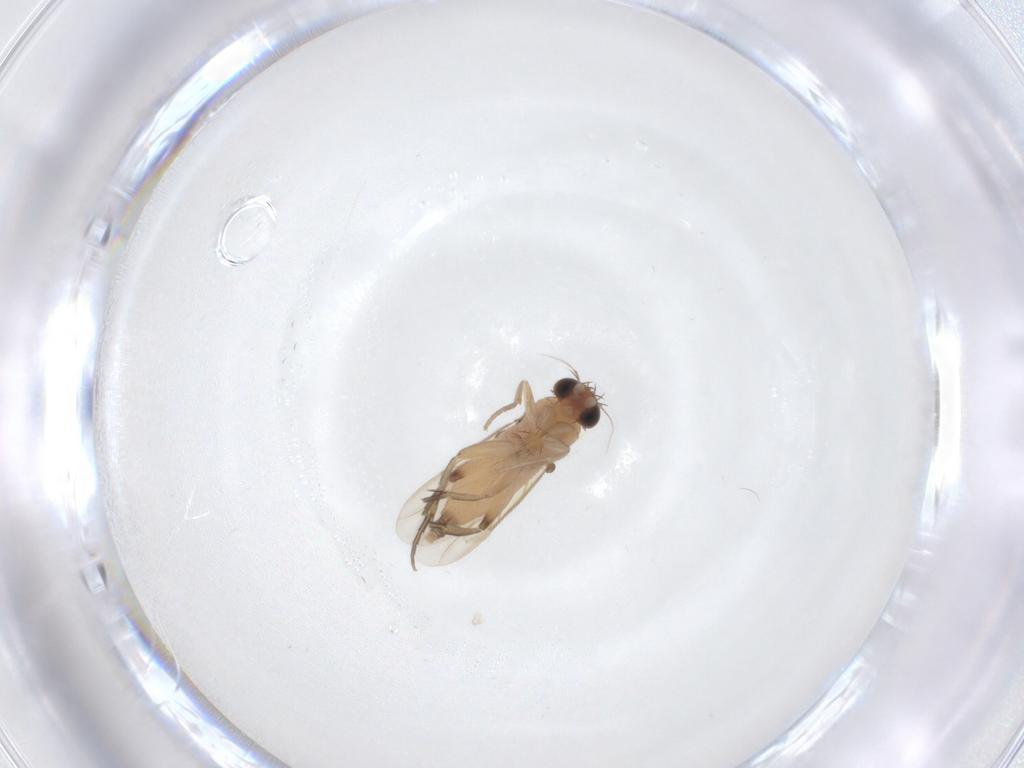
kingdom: Animalia
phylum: Arthropoda
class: Insecta
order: Diptera
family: Phoridae
